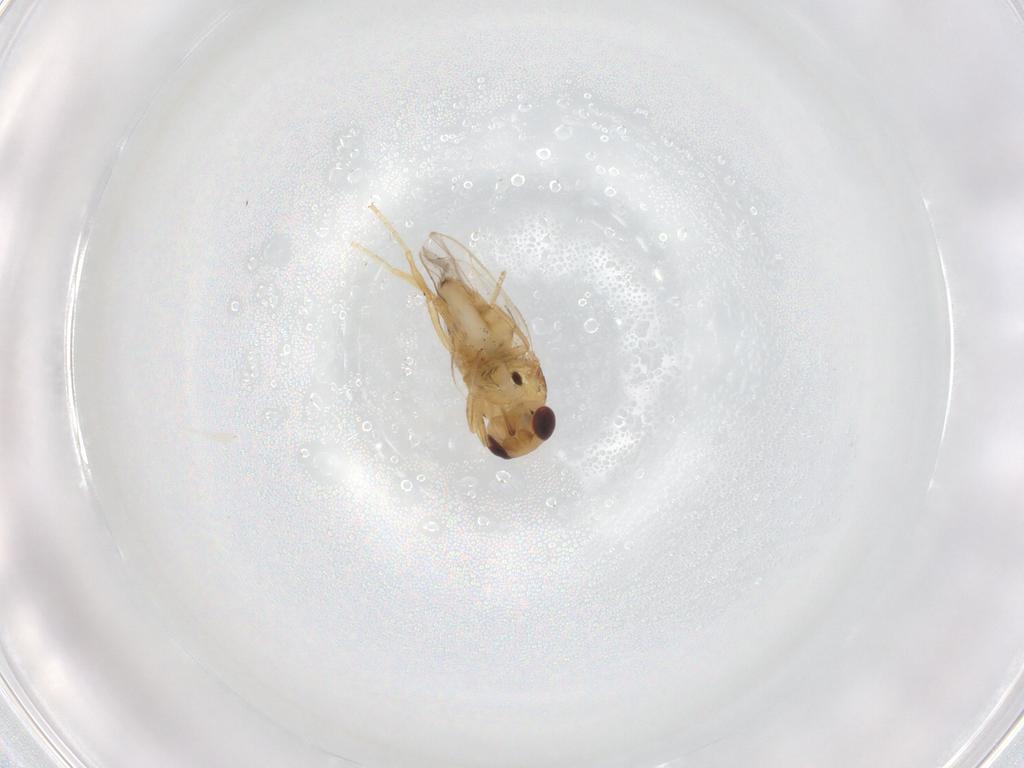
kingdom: Animalia
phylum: Arthropoda
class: Insecta
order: Diptera
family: Chloropidae
